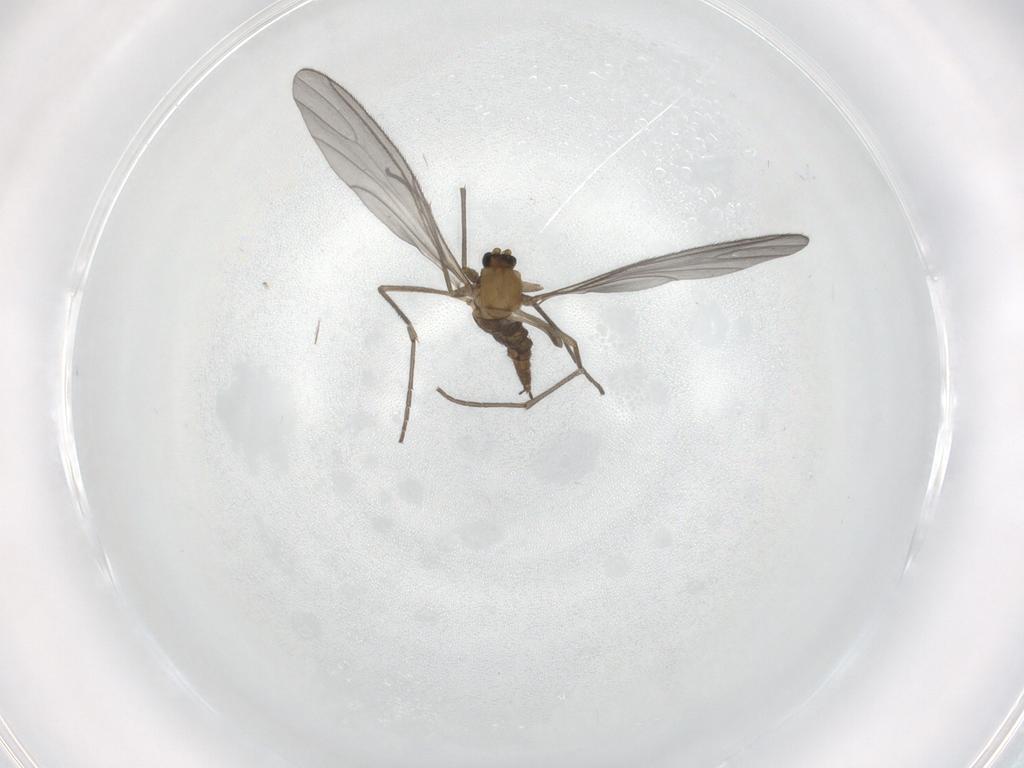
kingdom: Animalia
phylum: Arthropoda
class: Insecta
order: Diptera
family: Sciaridae
